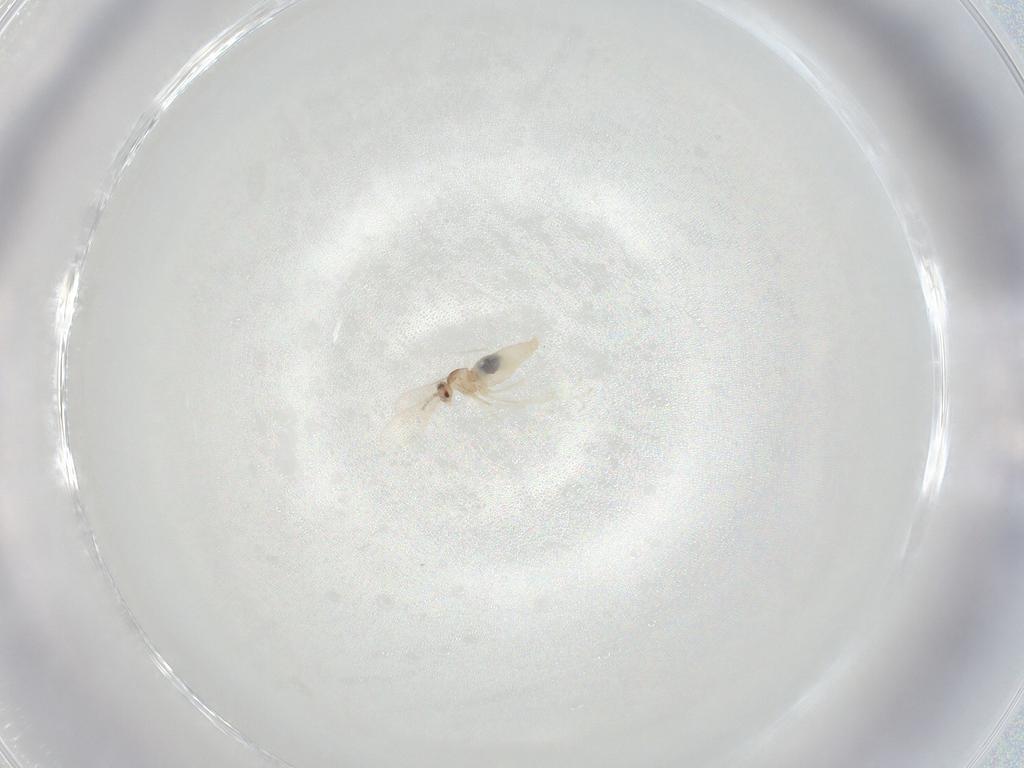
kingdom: Animalia
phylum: Arthropoda
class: Insecta
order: Diptera
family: Cecidomyiidae
